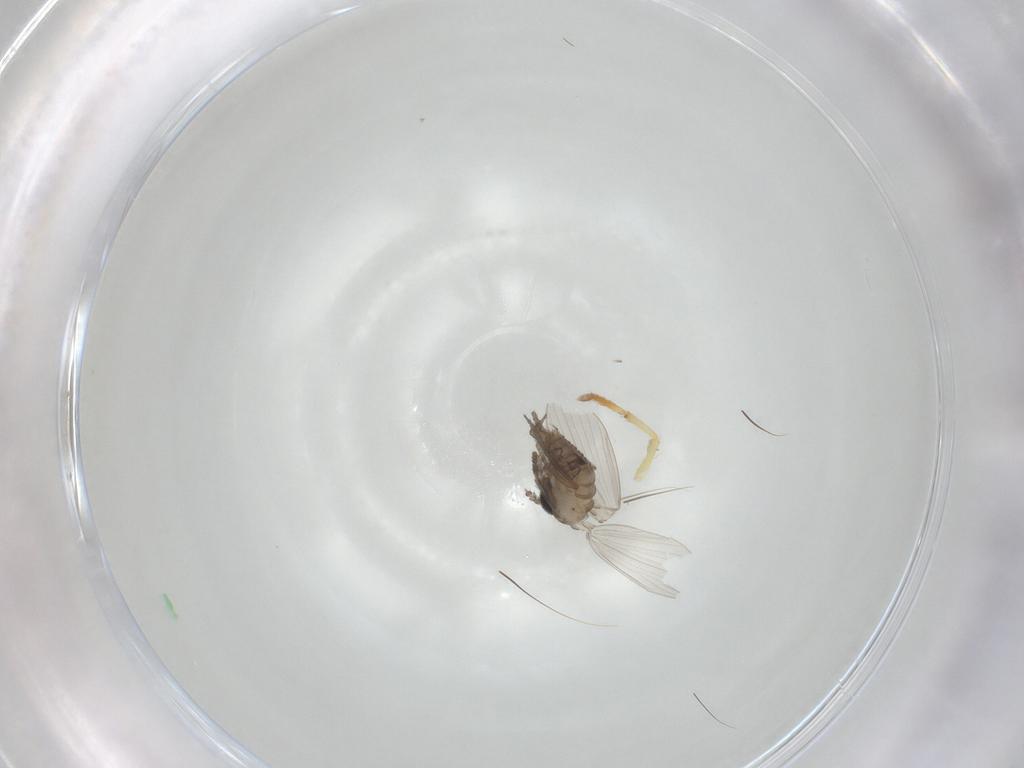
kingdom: Animalia
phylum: Arthropoda
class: Insecta
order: Diptera
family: Psychodidae
